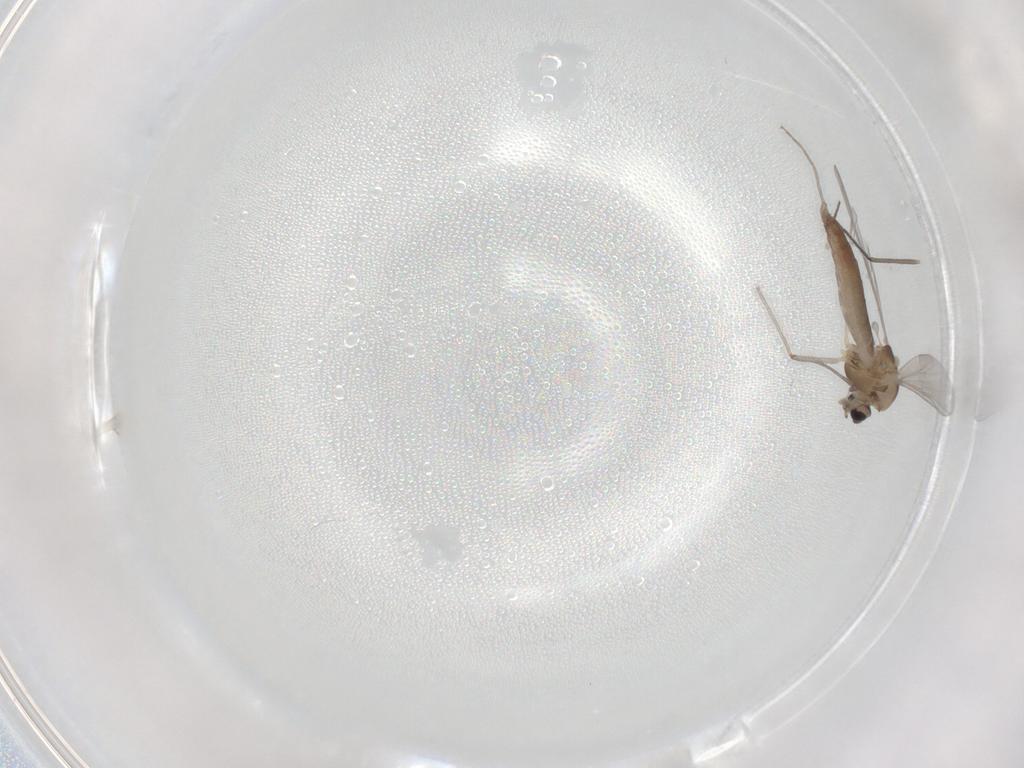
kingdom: Animalia
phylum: Arthropoda
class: Insecta
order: Diptera
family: Chironomidae
